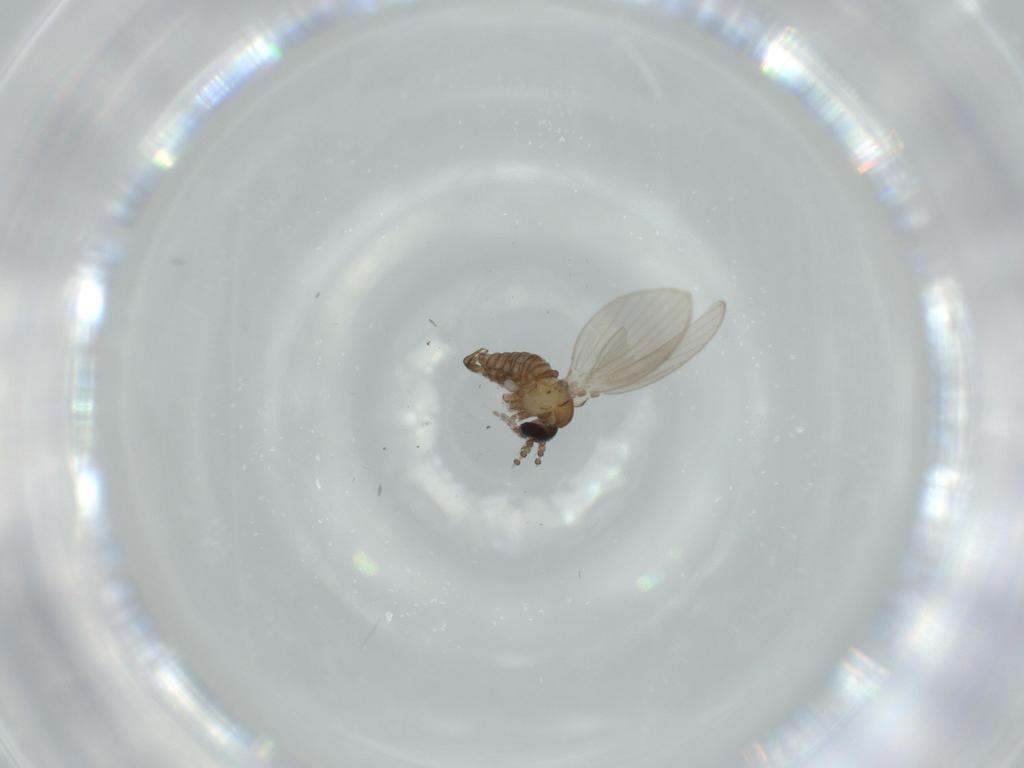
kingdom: Animalia
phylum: Arthropoda
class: Insecta
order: Diptera
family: Psychodidae
